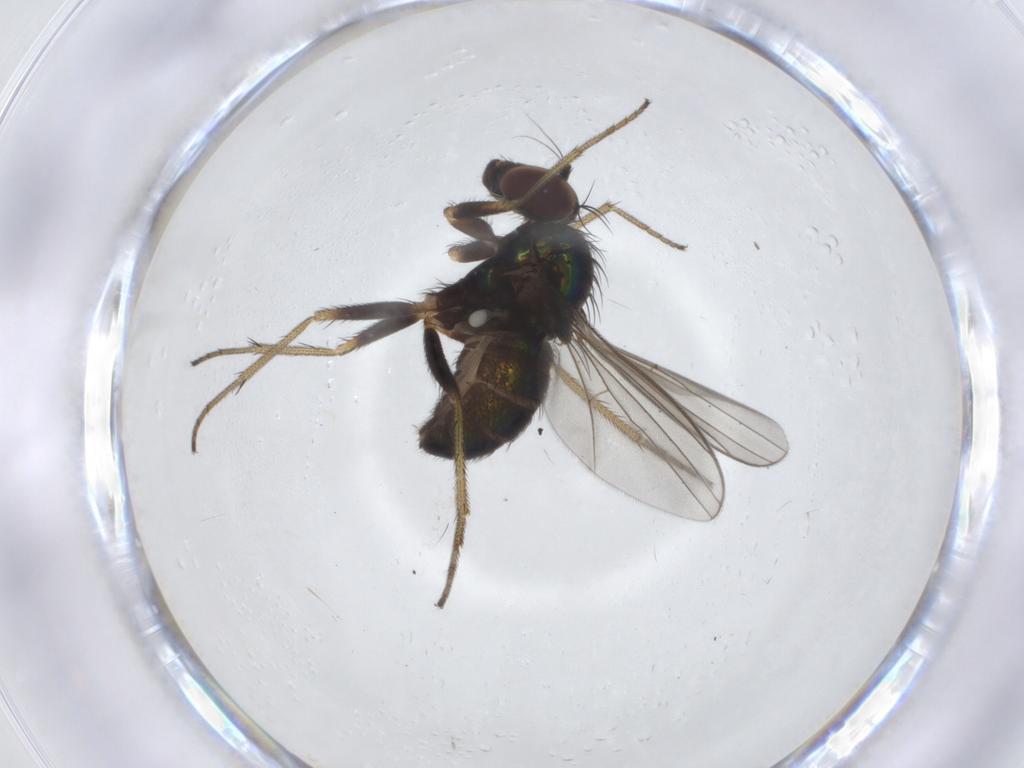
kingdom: Animalia
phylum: Arthropoda
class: Insecta
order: Diptera
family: Dolichopodidae
